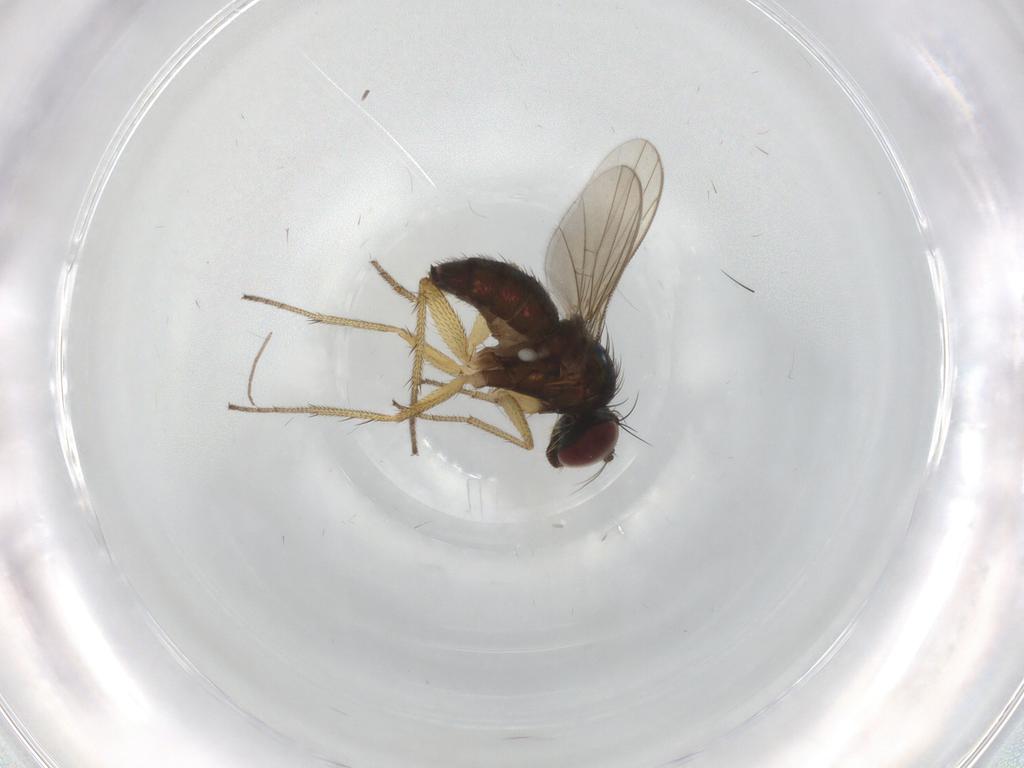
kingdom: Animalia
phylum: Arthropoda
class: Insecta
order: Diptera
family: Dolichopodidae
